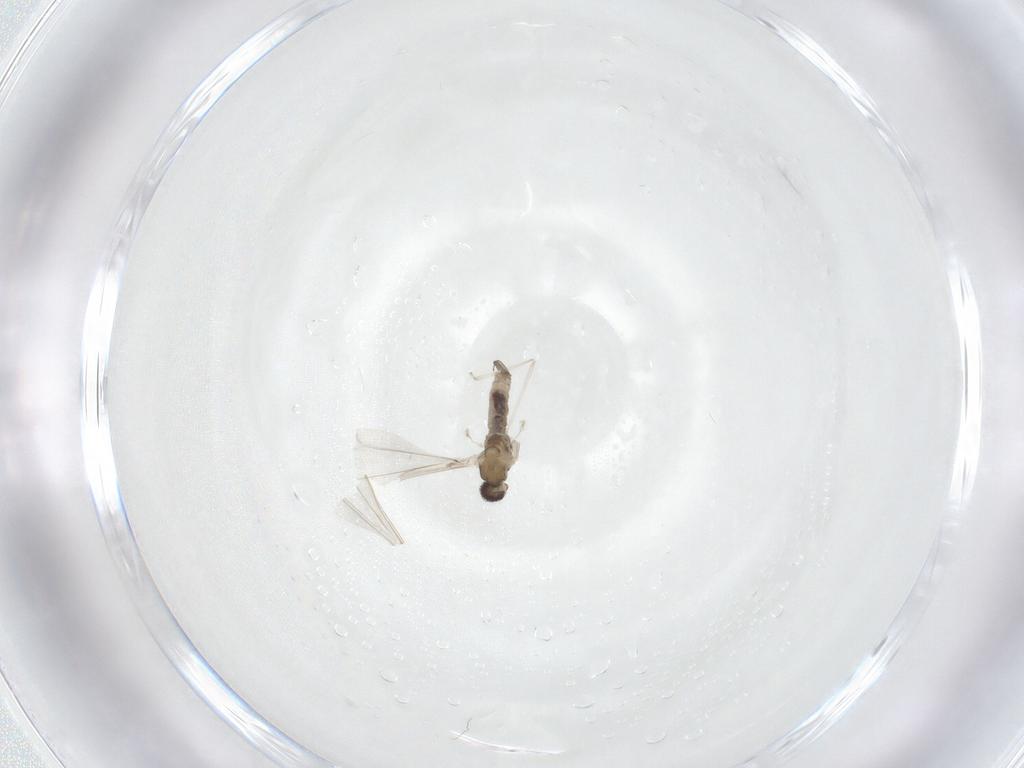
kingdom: Animalia
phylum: Arthropoda
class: Insecta
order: Diptera
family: Cecidomyiidae
